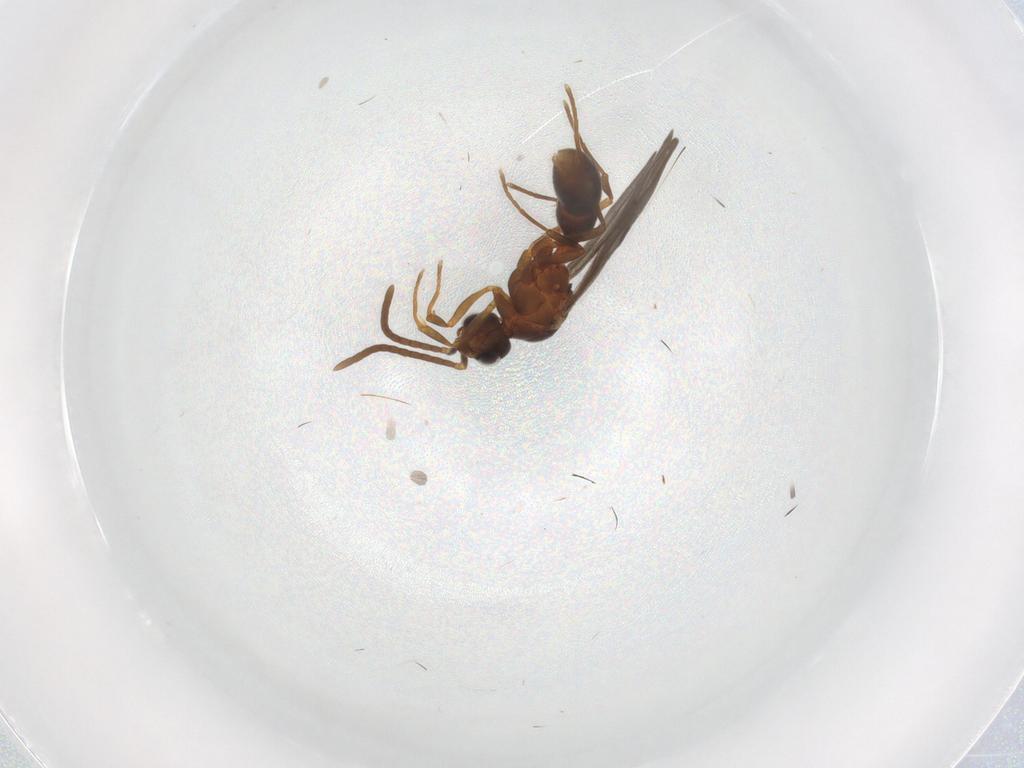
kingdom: Animalia
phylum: Arthropoda
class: Insecta
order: Hymenoptera
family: Formicidae
